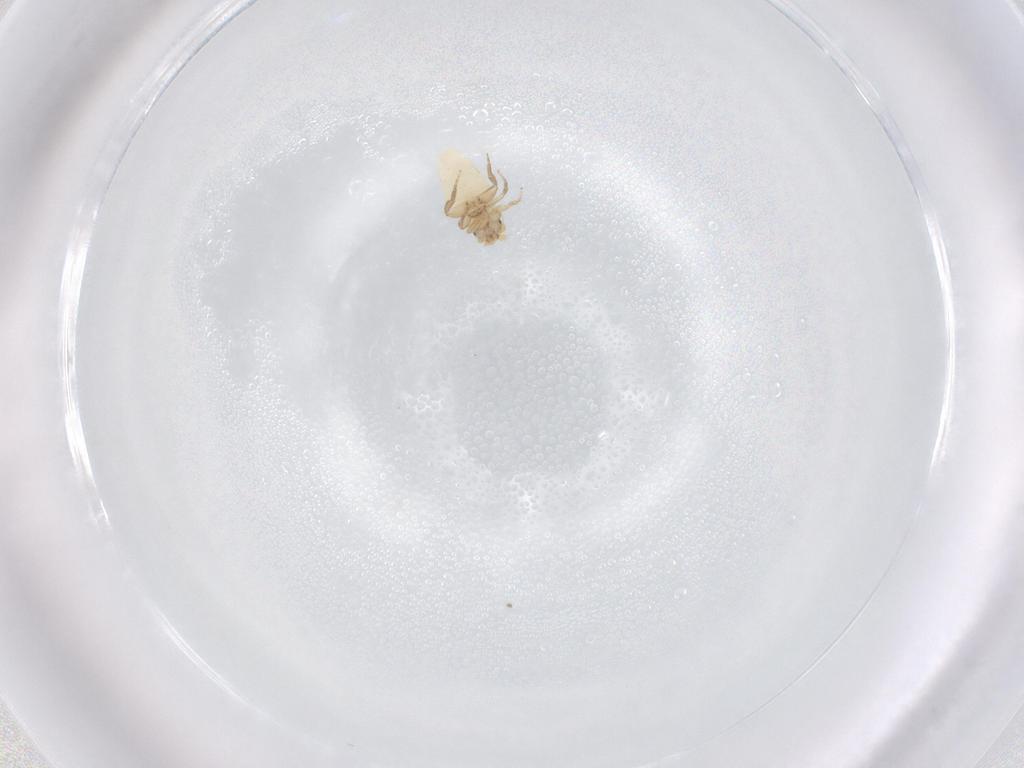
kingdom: Animalia
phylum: Arthropoda
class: Insecta
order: Diptera
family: Phoridae
